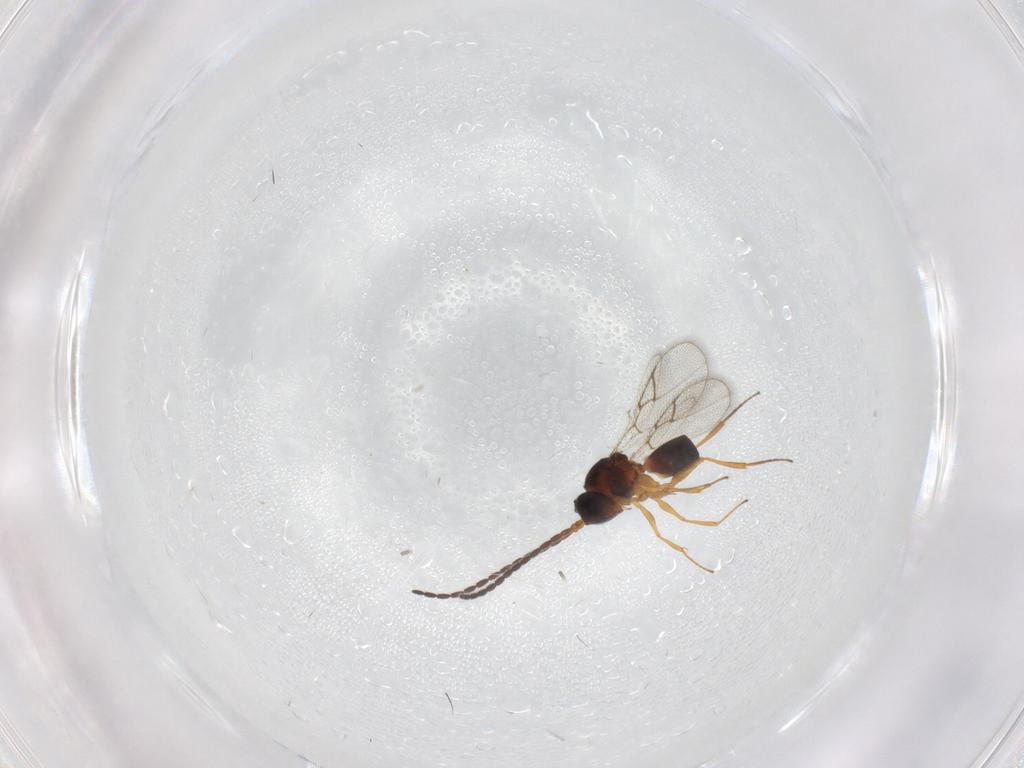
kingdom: Animalia
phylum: Arthropoda
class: Insecta
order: Hymenoptera
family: Figitidae
